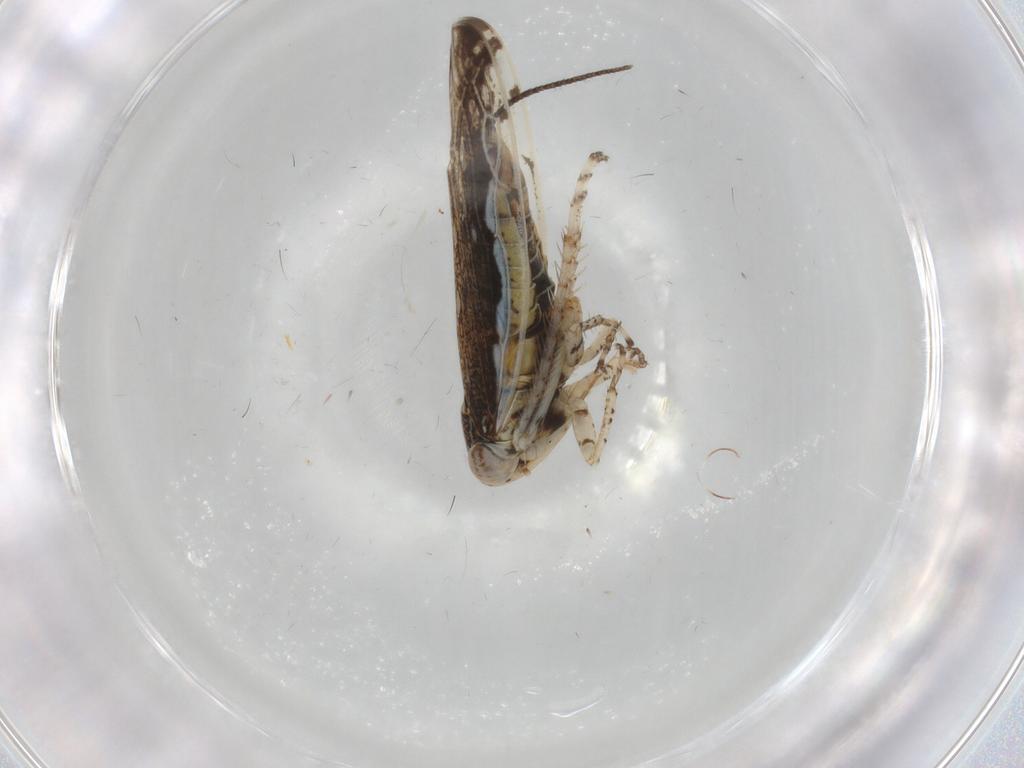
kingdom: Animalia
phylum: Arthropoda
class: Insecta
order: Hemiptera
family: Cicadellidae
